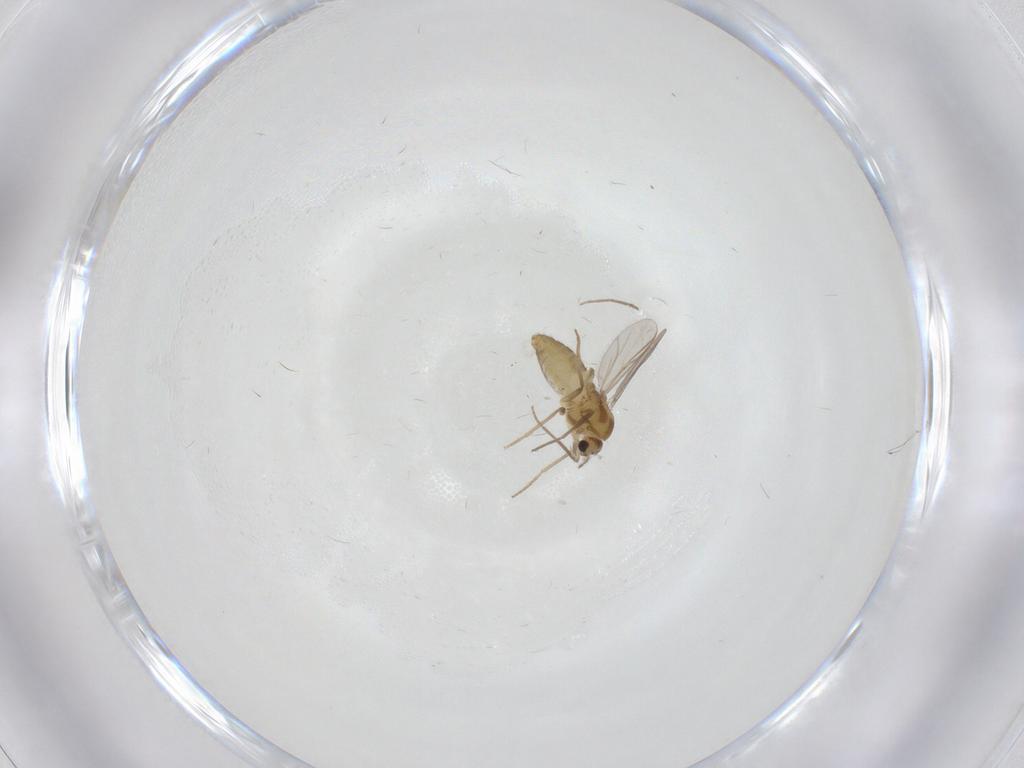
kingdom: Animalia
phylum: Arthropoda
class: Insecta
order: Diptera
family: Chironomidae
